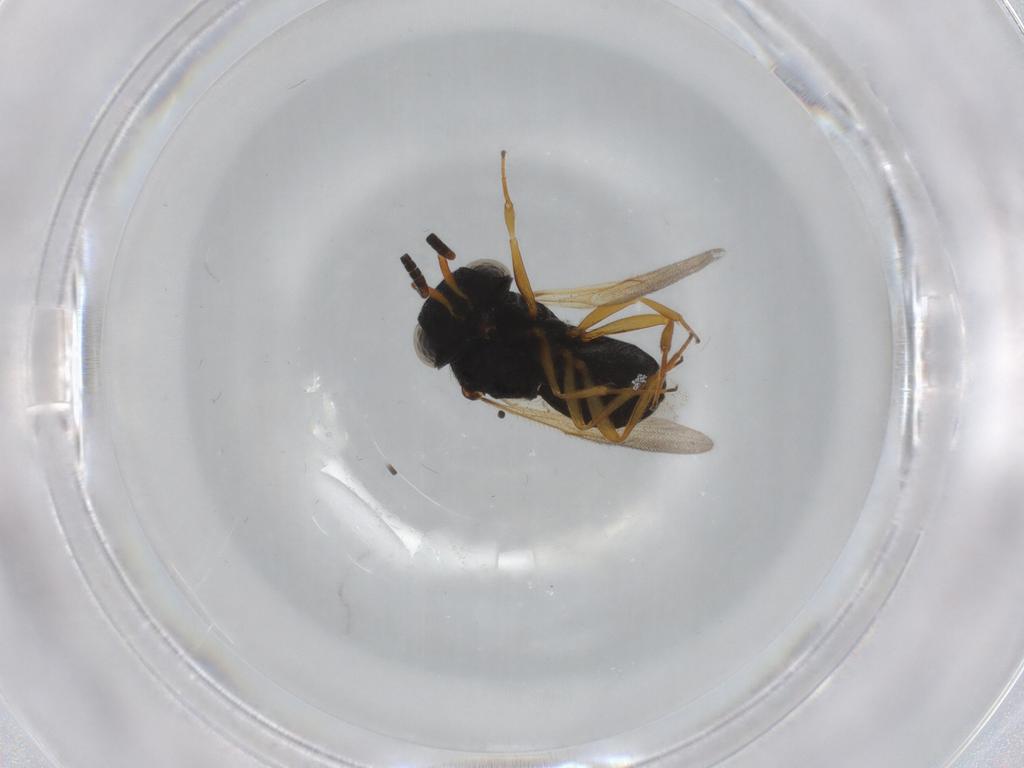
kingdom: Animalia
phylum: Arthropoda
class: Insecta
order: Hymenoptera
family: Scelionidae
